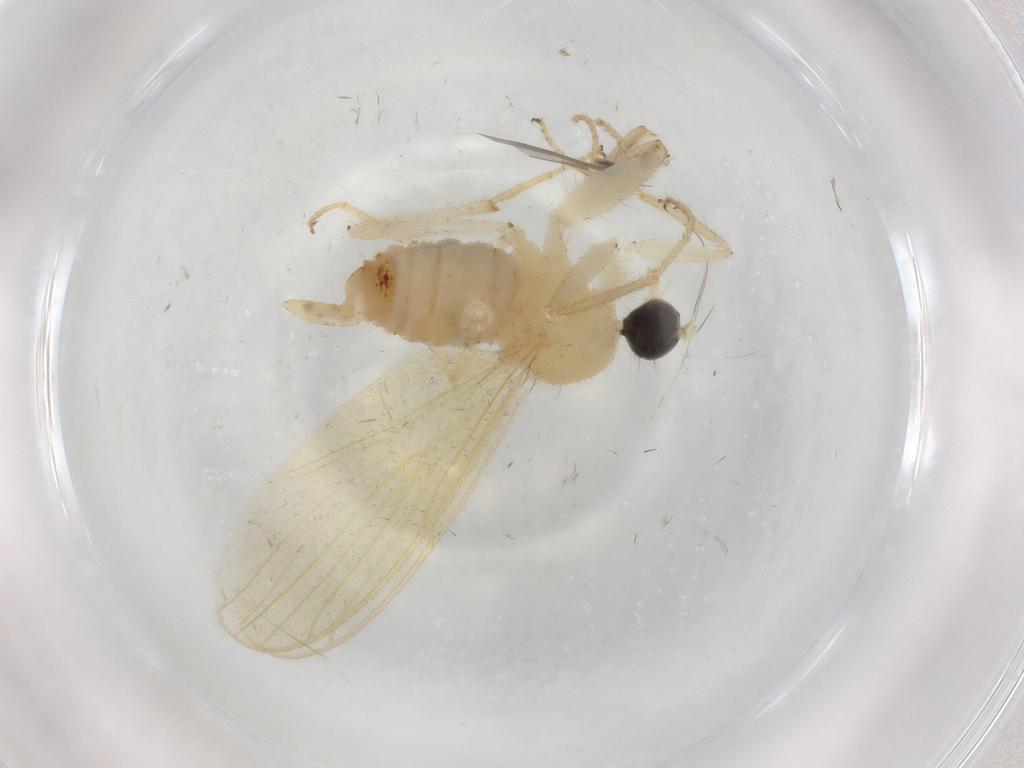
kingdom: Animalia
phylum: Arthropoda
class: Insecta
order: Diptera
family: Hybotidae
